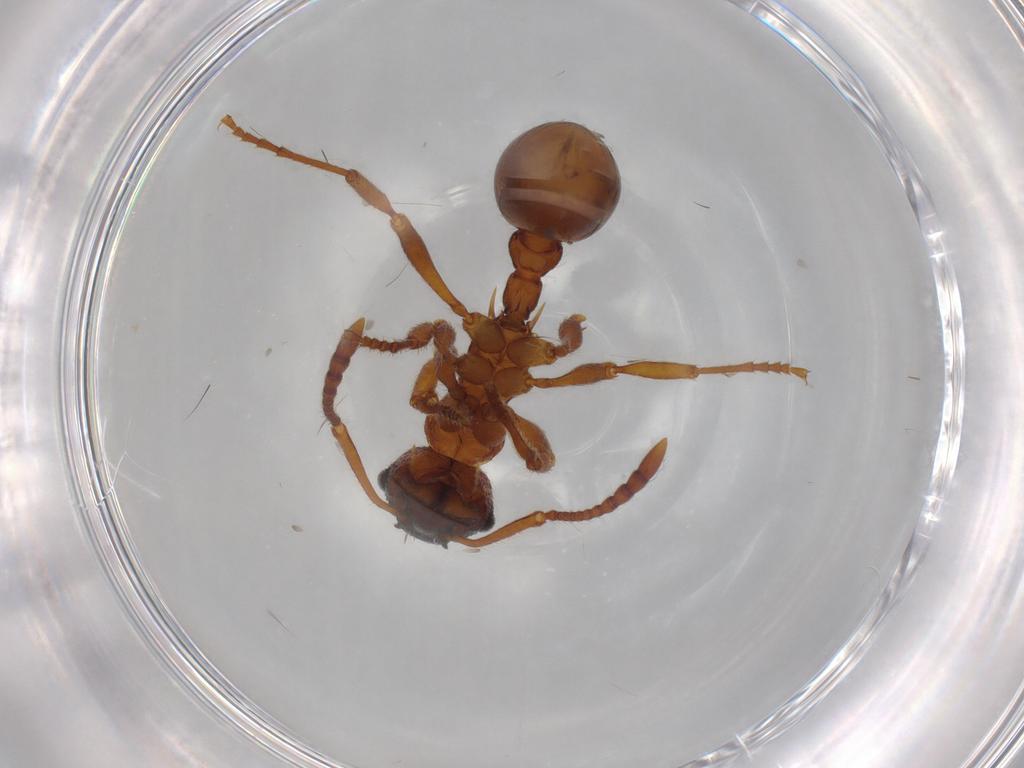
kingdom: Animalia
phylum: Arthropoda
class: Insecta
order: Hymenoptera
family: Formicidae
